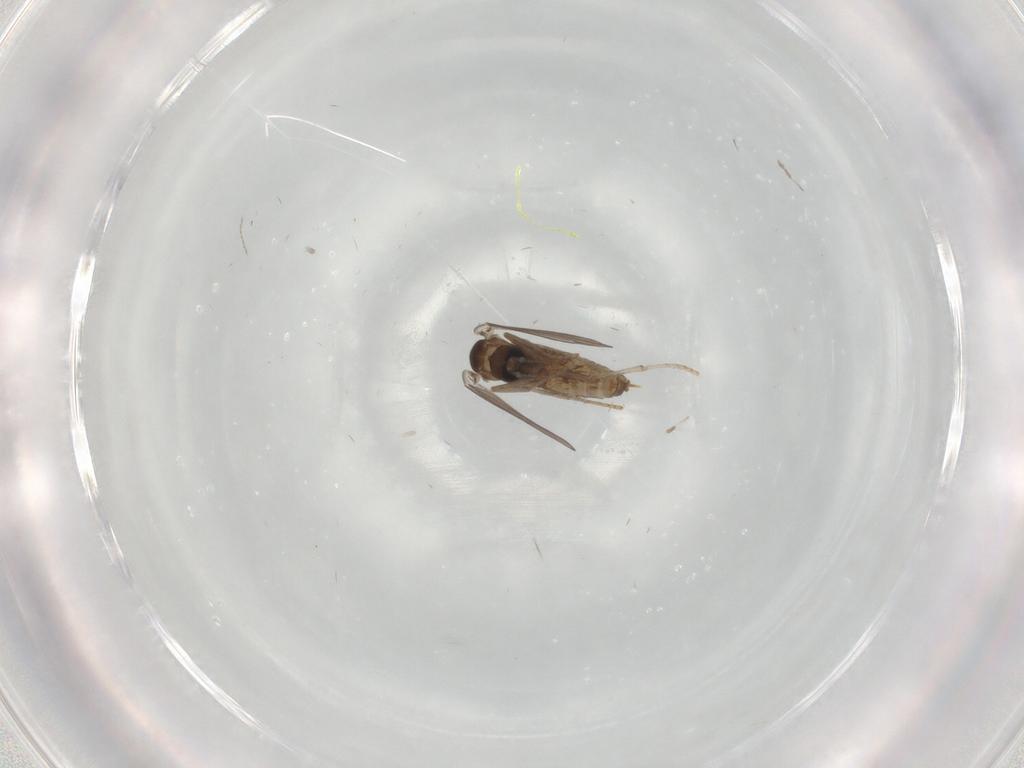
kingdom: Animalia
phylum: Arthropoda
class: Insecta
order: Diptera
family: Psychodidae
